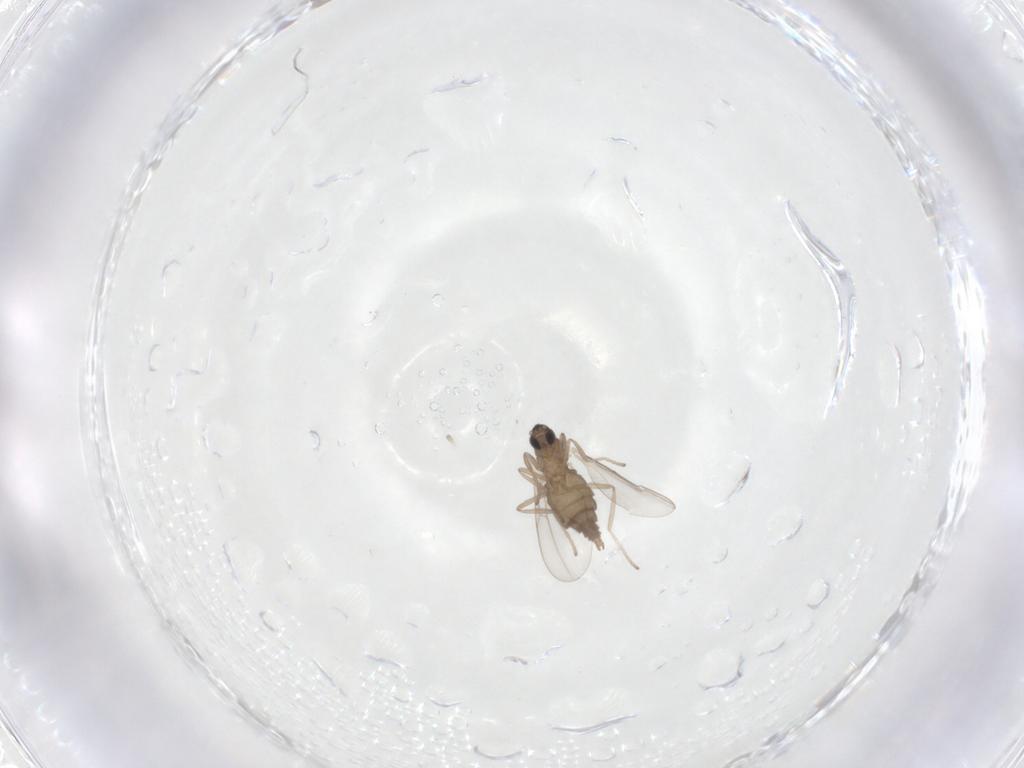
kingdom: Animalia
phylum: Arthropoda
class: Insecta
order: Diptera
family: Cecidomyiidae
